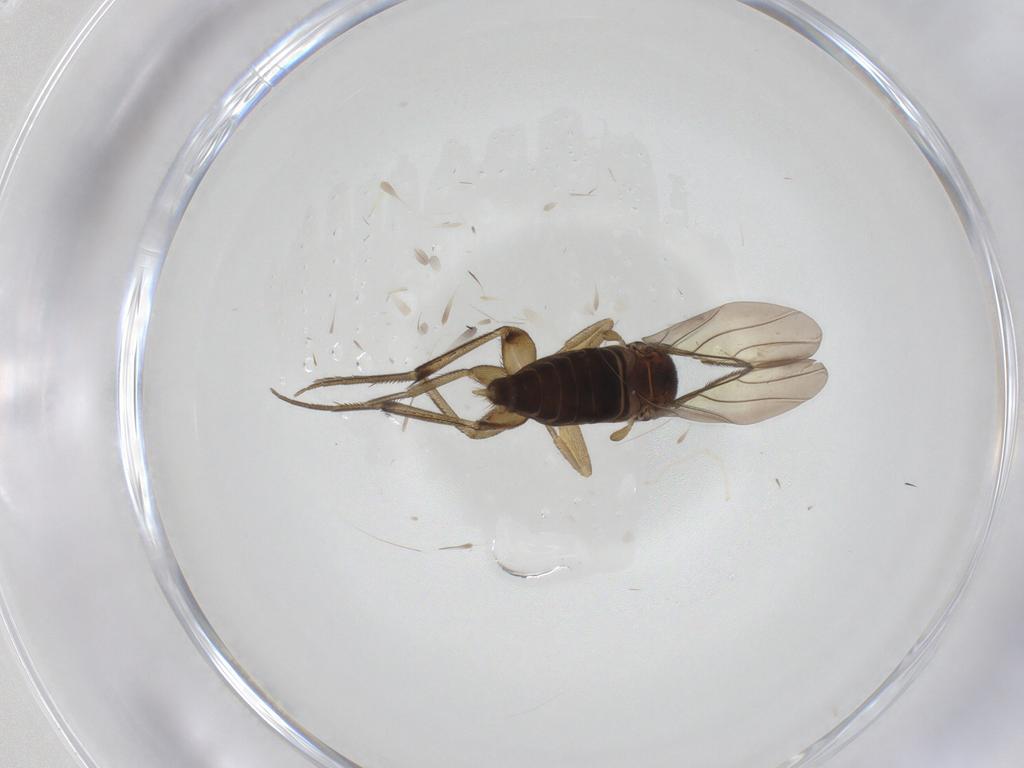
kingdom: Animalia
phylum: Arthropoda
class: Insecta
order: Diptera
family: Phoridae
